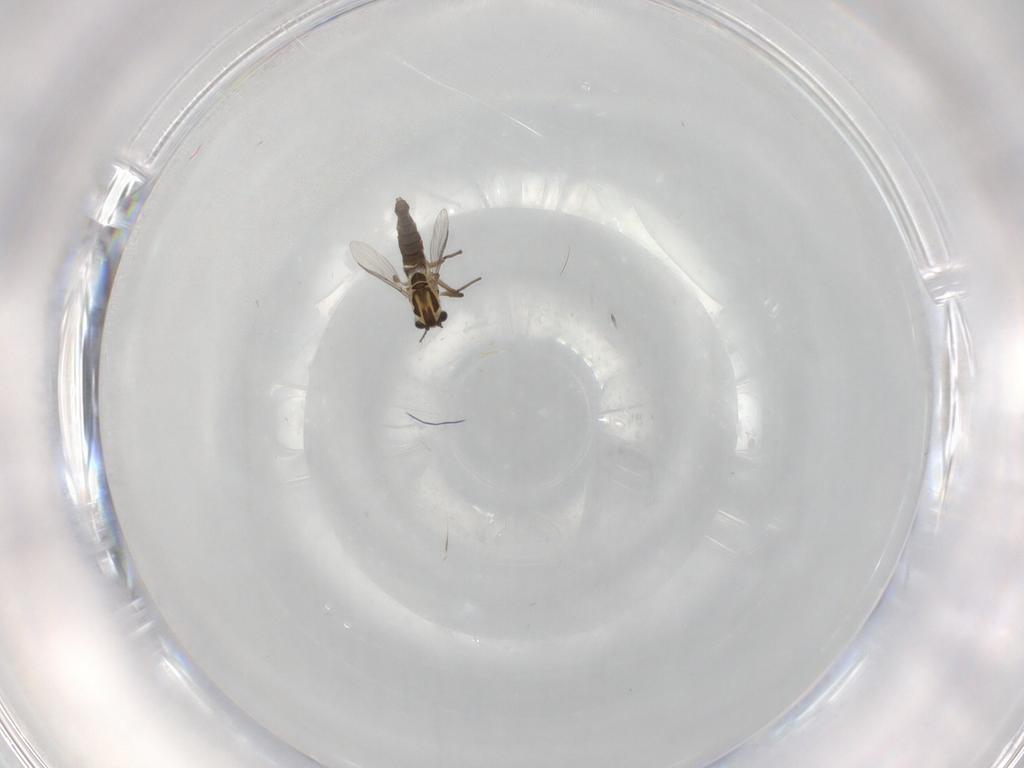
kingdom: Animalia
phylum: Arthropoda
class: Insecta
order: Diptera
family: Chironomidae
